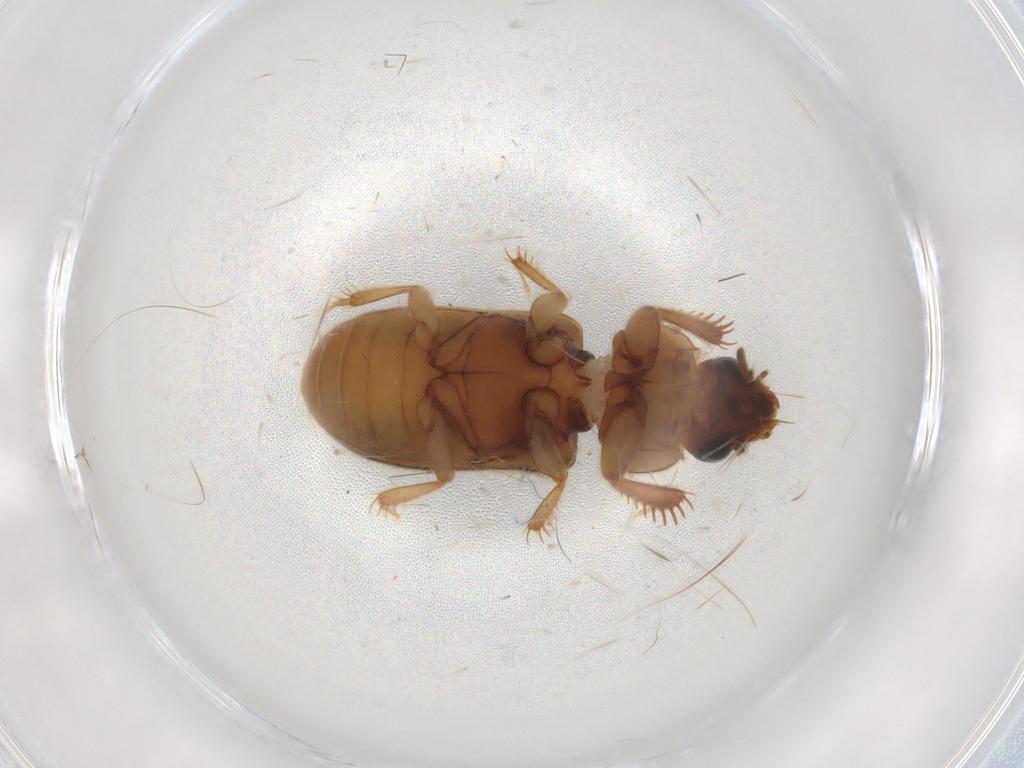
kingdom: Animalia
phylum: Arthropoda
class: Insecta
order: Coleoptera
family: Heteroceridae
